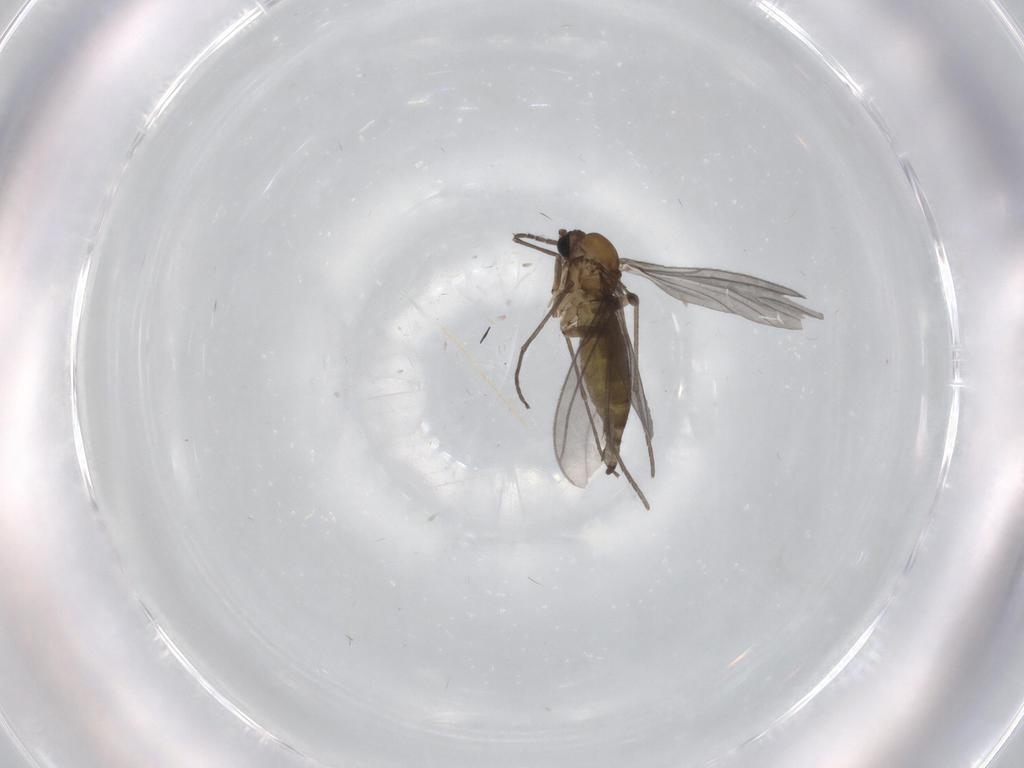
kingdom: Animalia
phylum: Arthropoda
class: Insecta
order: Diptera
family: Sciaridae
